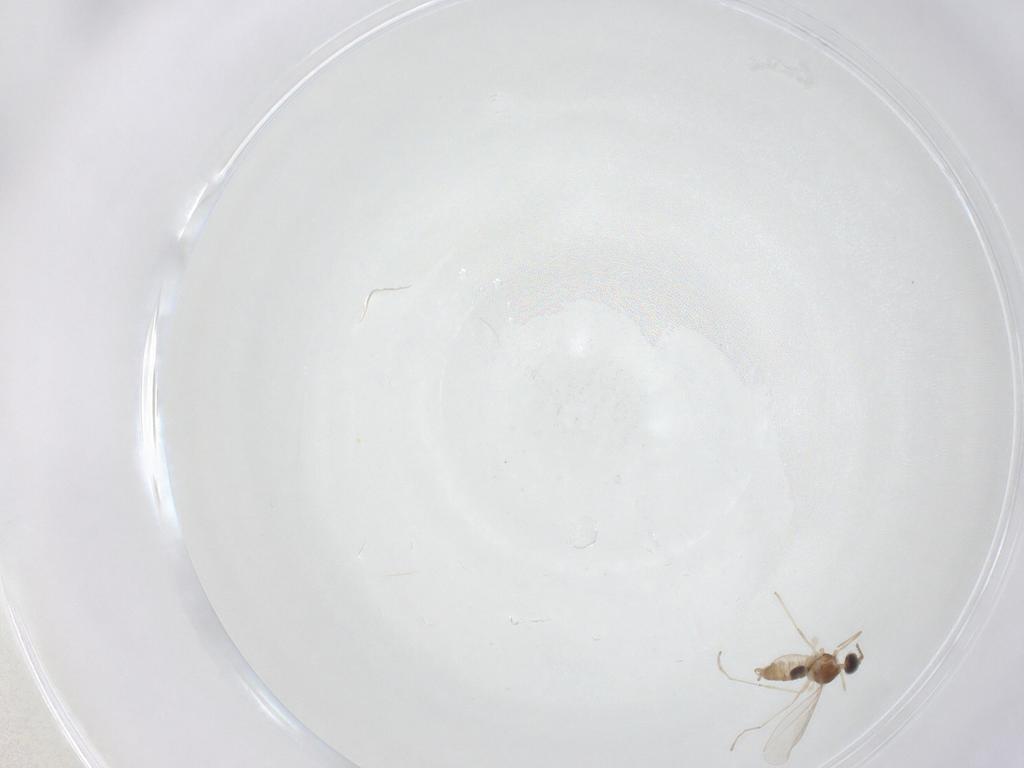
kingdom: Animalia
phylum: Arthropoda
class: Insecta
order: Diptera
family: Cecidomyiidae
